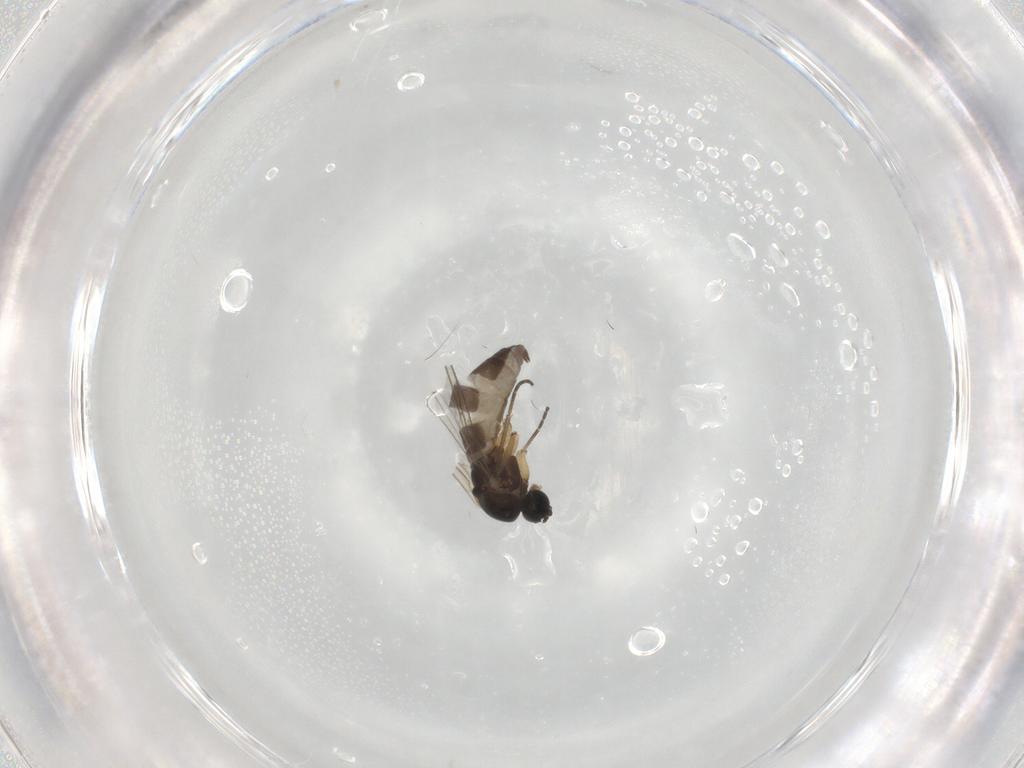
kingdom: Animalia
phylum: Arthropoda
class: Insecta
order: Diptera
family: Sciaridae
